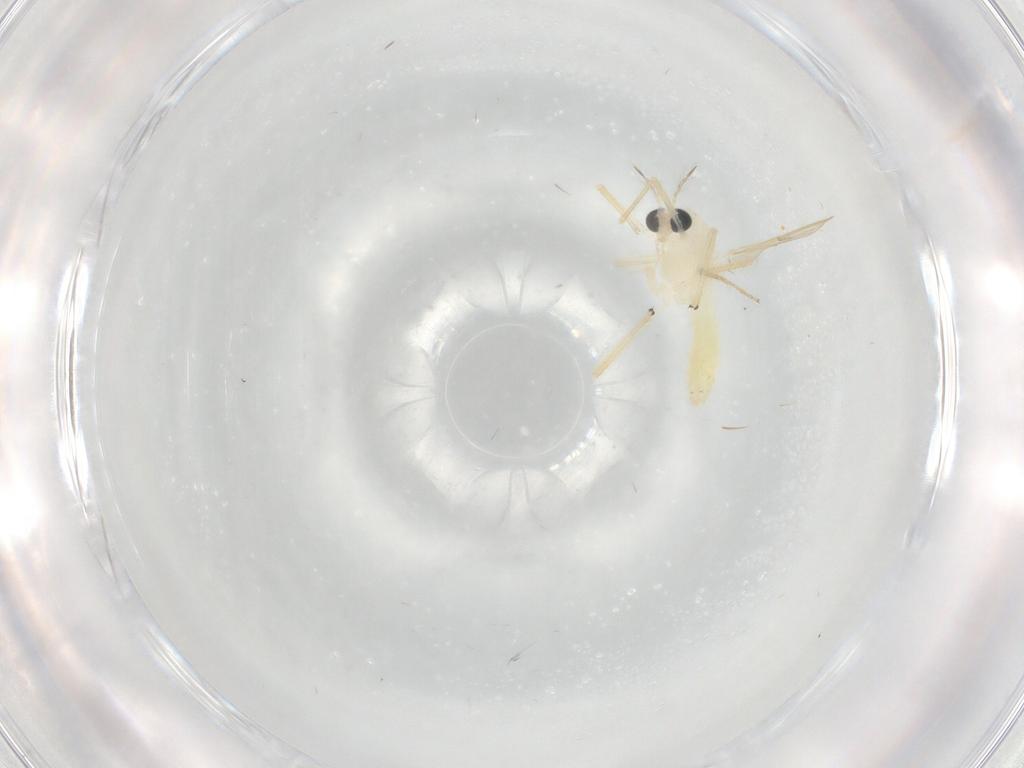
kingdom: Animalia
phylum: Arthropoda
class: Insecta
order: Diptera
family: Chironomidae
